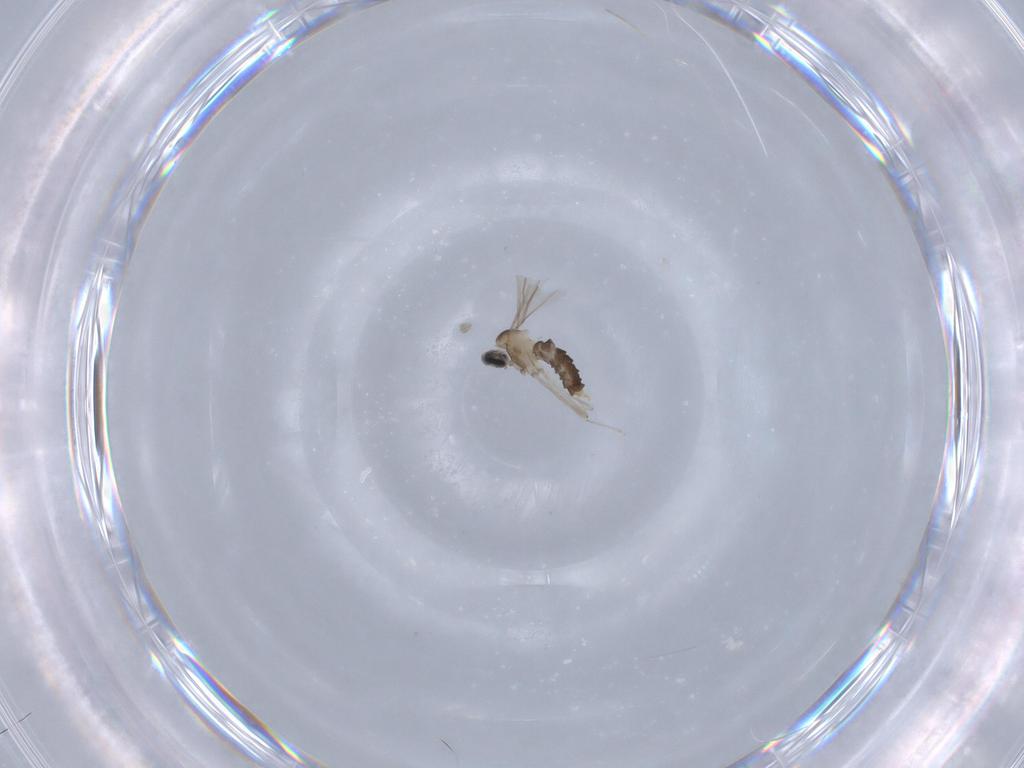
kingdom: Animalia
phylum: Arthropoda
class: Insecta
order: Diptera
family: Cecidomyiidae
